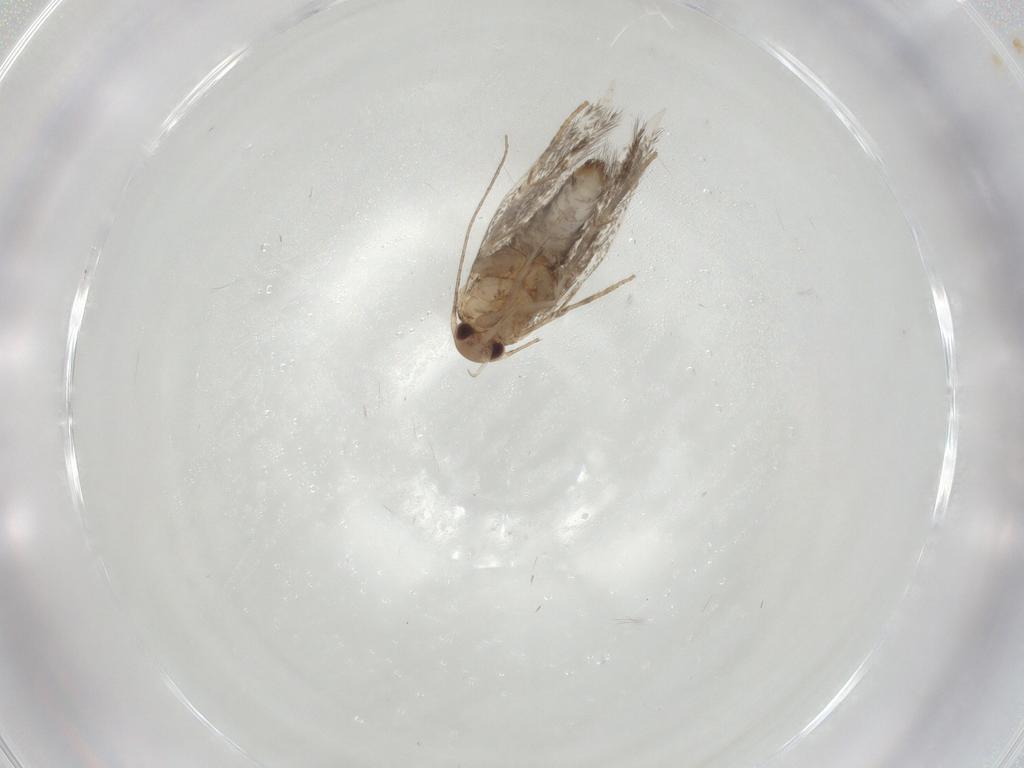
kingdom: Animalia
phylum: Arthropoda
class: Insecta
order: Lepidoptera
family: Elachistidae
